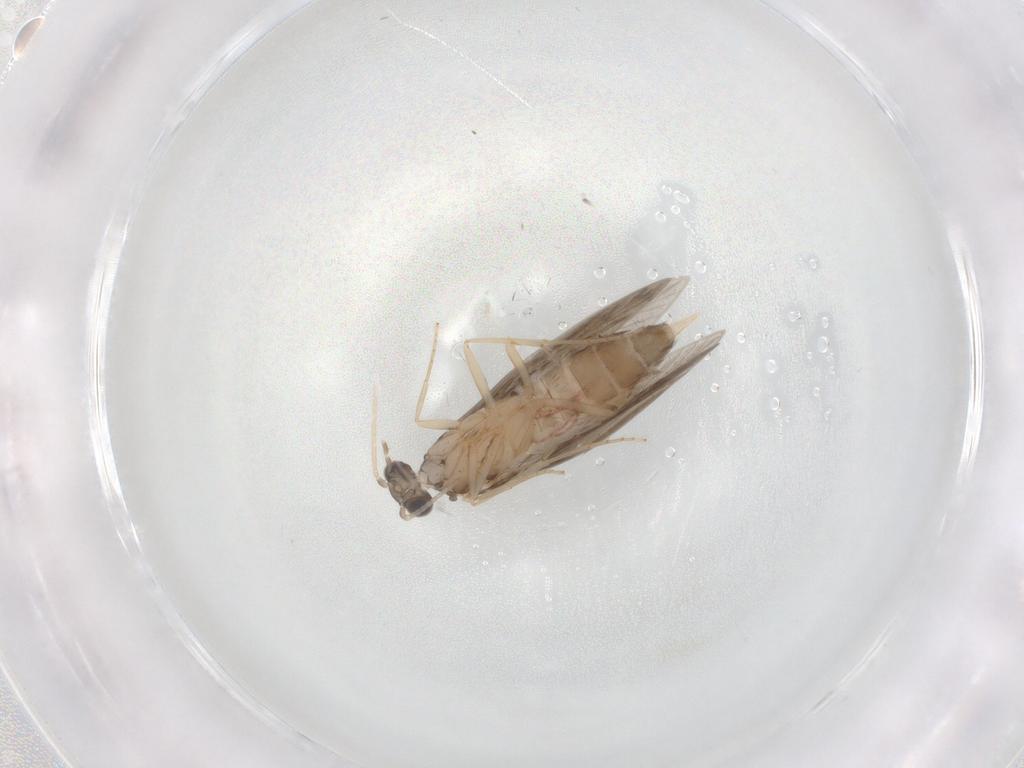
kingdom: Animalia
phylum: Arthropoda
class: Insecta
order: Trichoptera
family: Hydroptilidae
